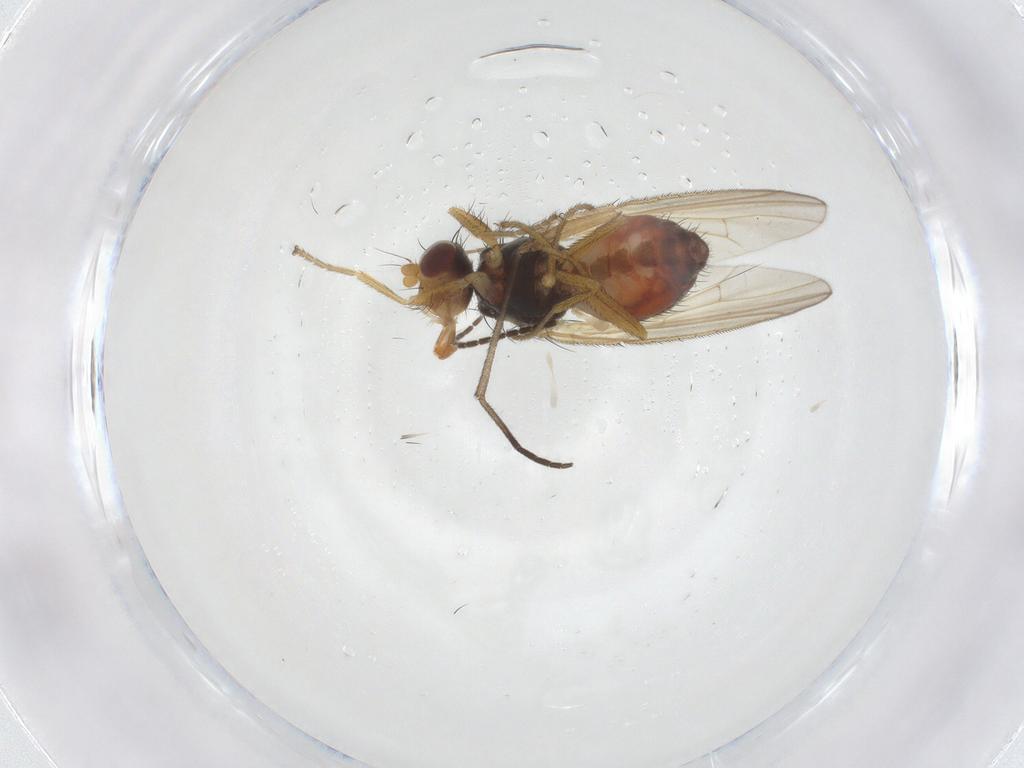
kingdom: Animalia
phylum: Arthropoda
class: Insecta
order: Diptera
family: Heleomyzidae
